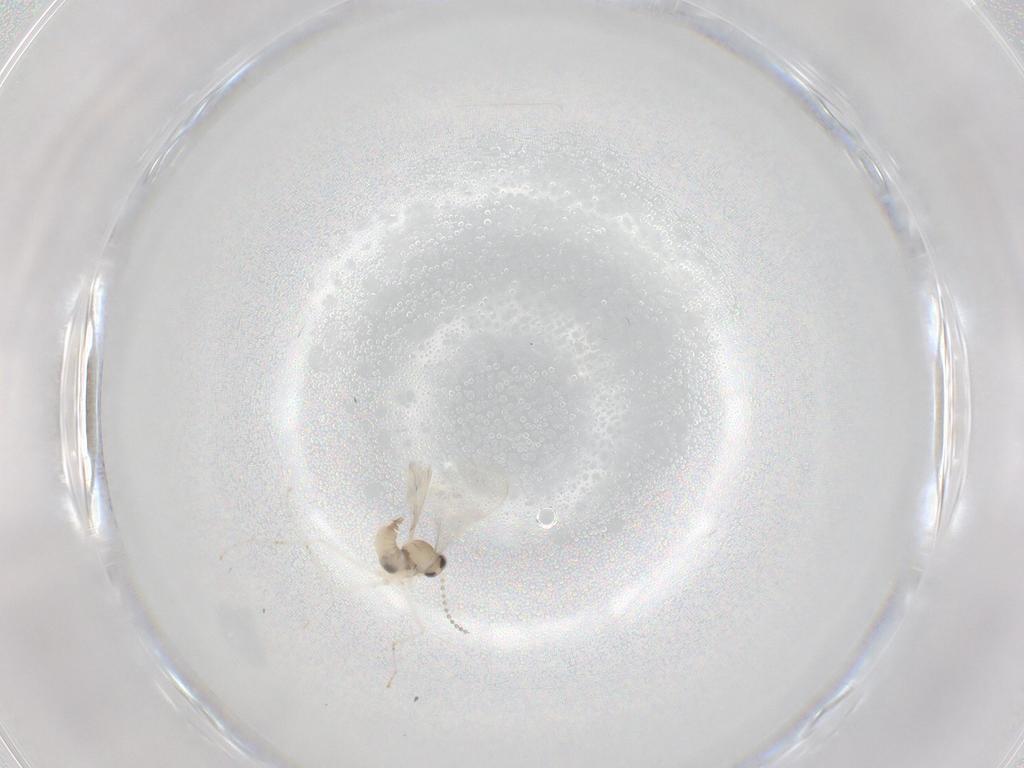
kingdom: Animalia
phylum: Arthropoda
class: Insecta
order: Diptera
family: Cecidomyiidae
